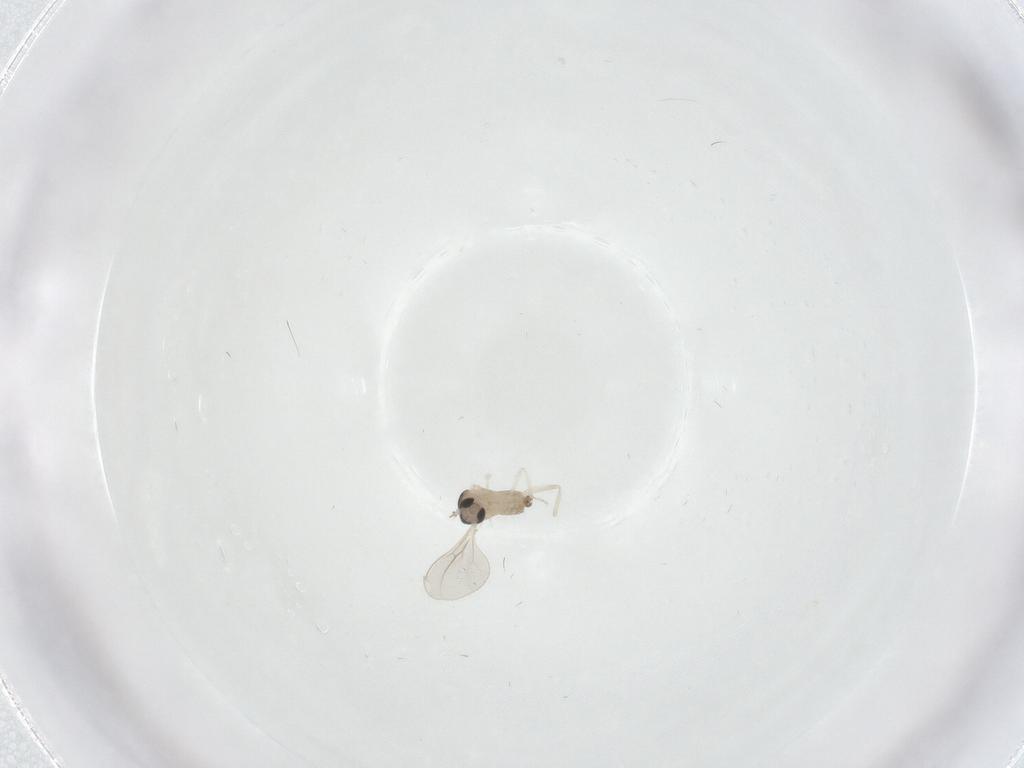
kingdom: Animalia
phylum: Arthropoda
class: Insecta
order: Diptera
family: Cecidomyiidae
